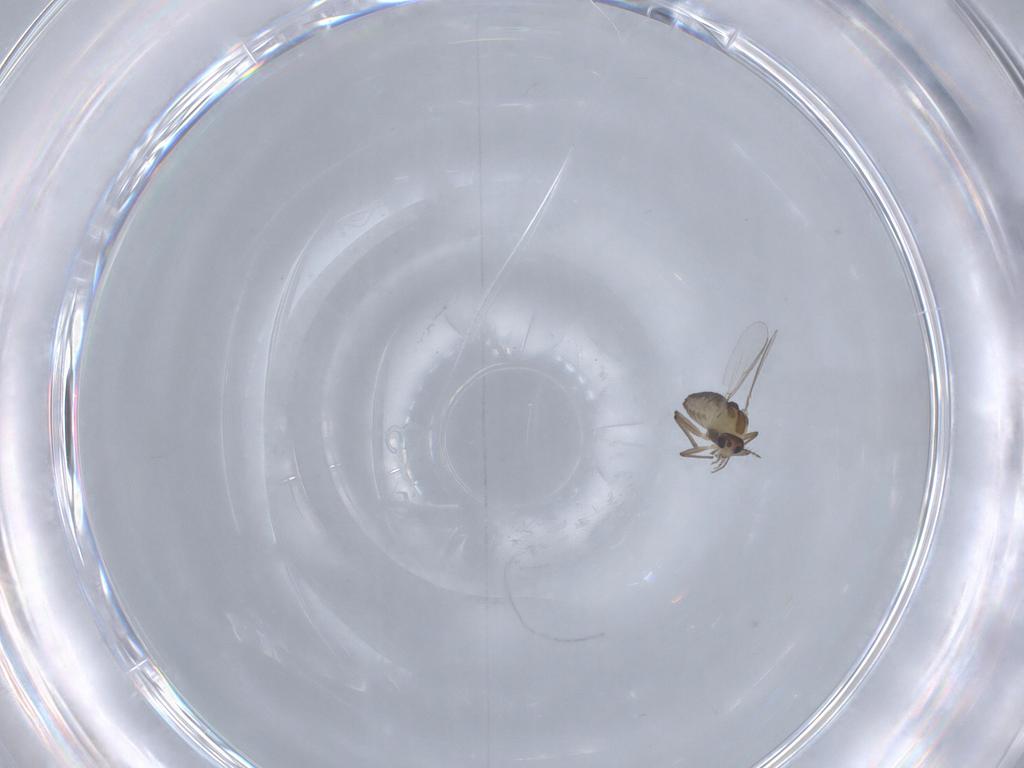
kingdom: Animalia
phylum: Arthropoda
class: Insecta
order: Diptera
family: Chironomidae
